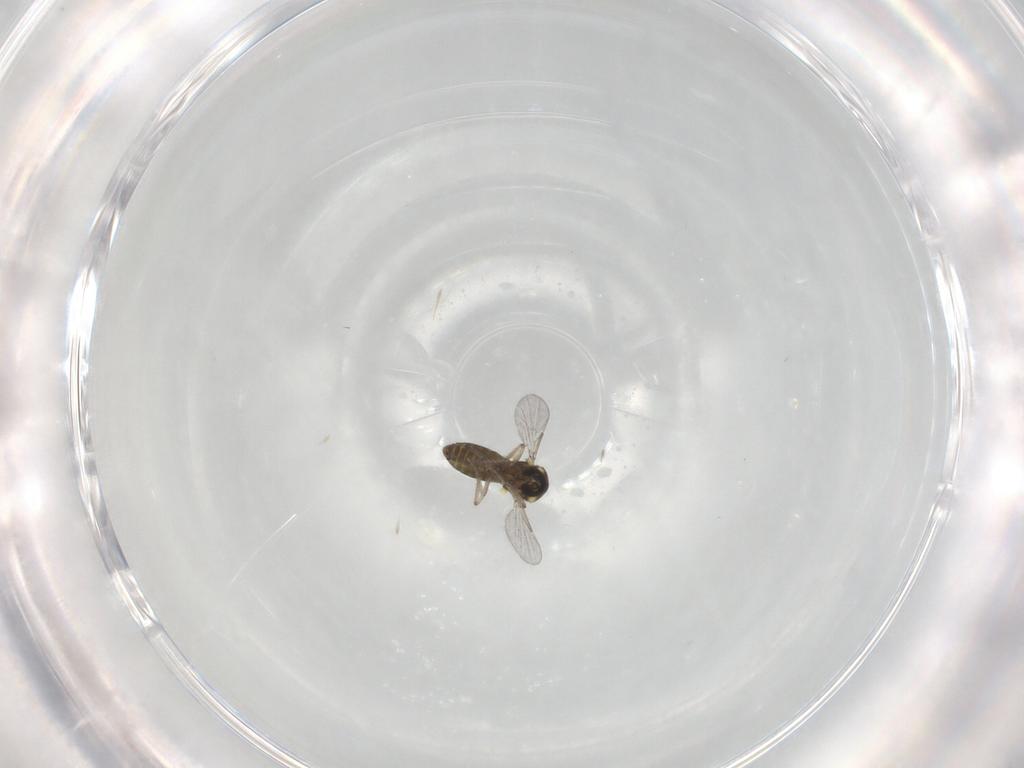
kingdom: Animalia
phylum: Arthropoda
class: Insecta
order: Diptera
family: Ceratopogonidae
